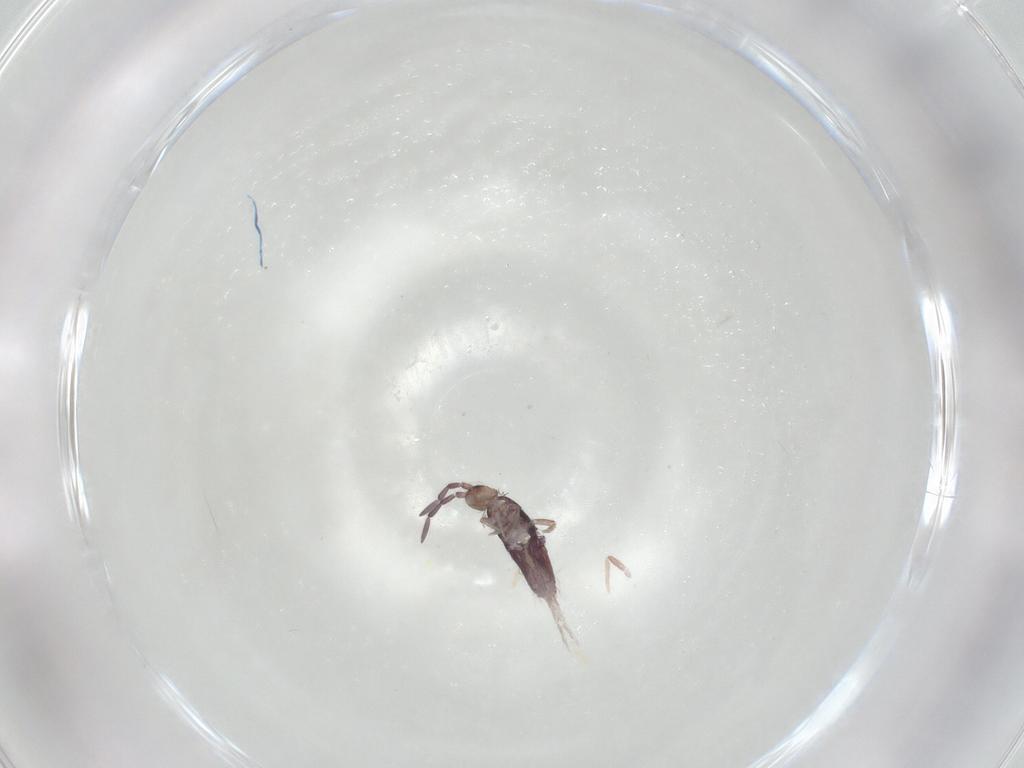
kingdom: Animalia
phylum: Arthropoda
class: Collembola
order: Entomobryomorpha
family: Entomobryidae
